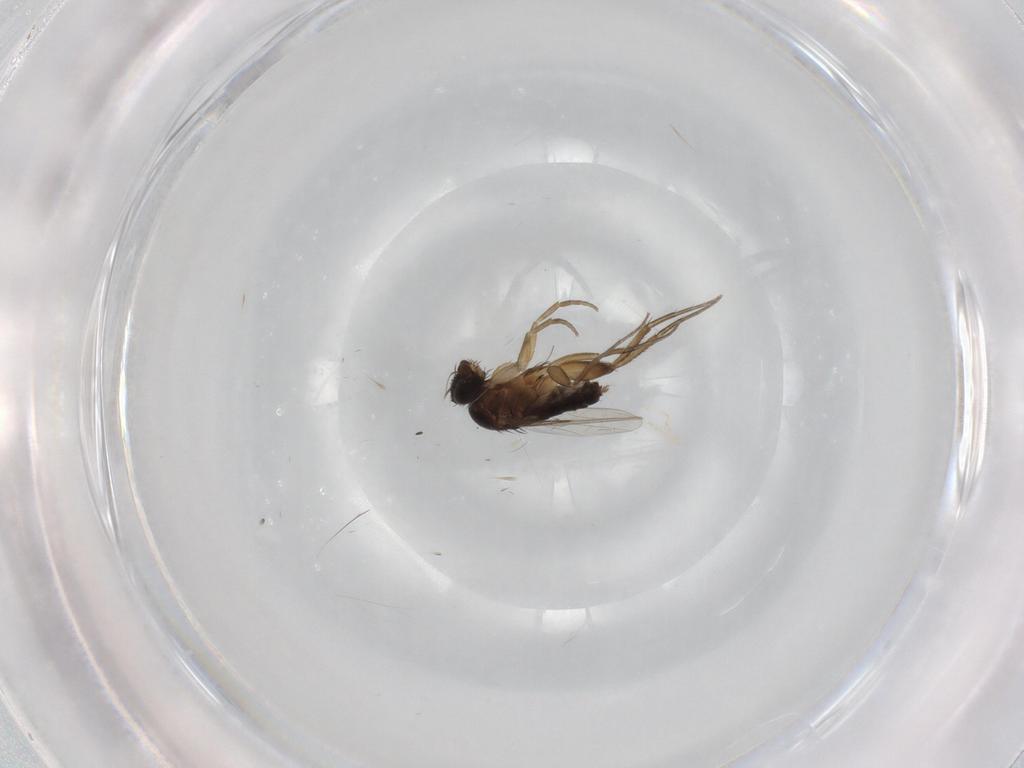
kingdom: Animalia
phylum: Arthropoda
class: Insecta
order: Diptera
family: Phoridae
